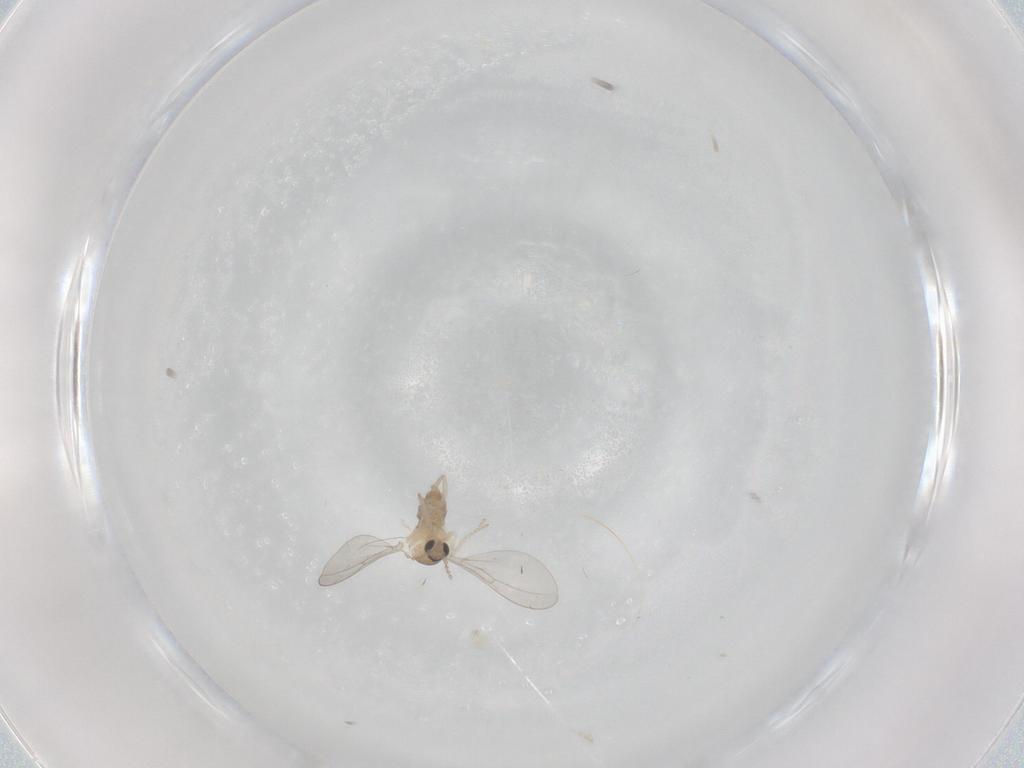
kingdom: Animalia
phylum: Arthropoda
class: Insecta
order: Diptera
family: Cecidomyiidae
